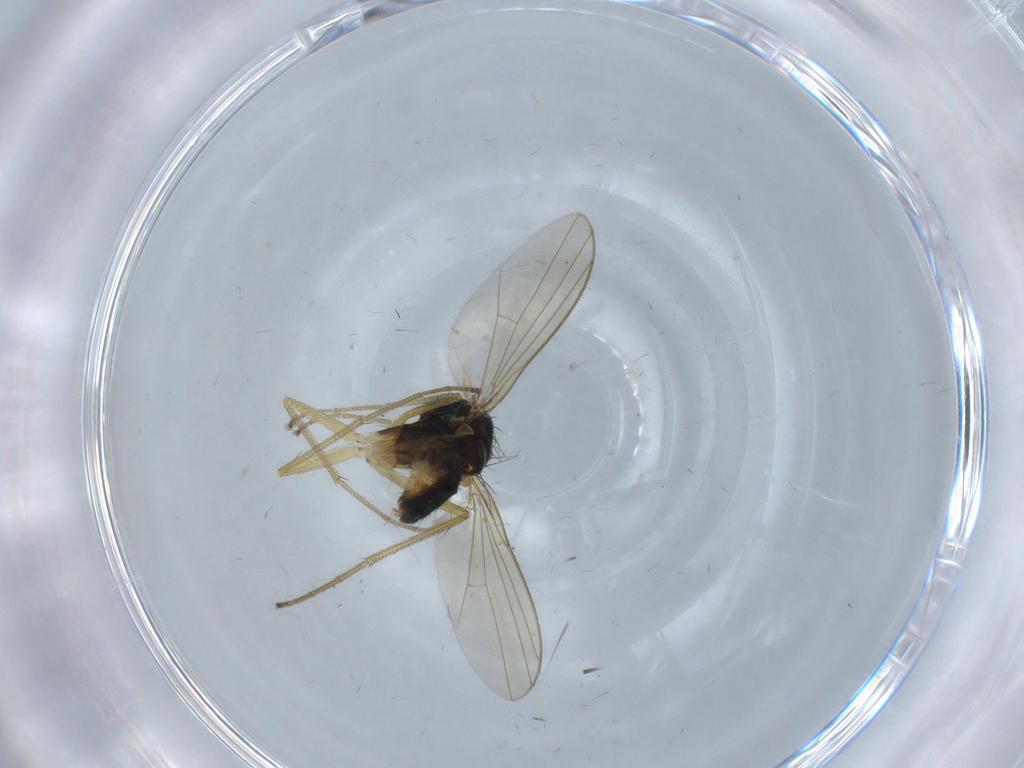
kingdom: Animalia
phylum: Arthropoda
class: Insecta
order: Diptera
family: Dolichopodidae
